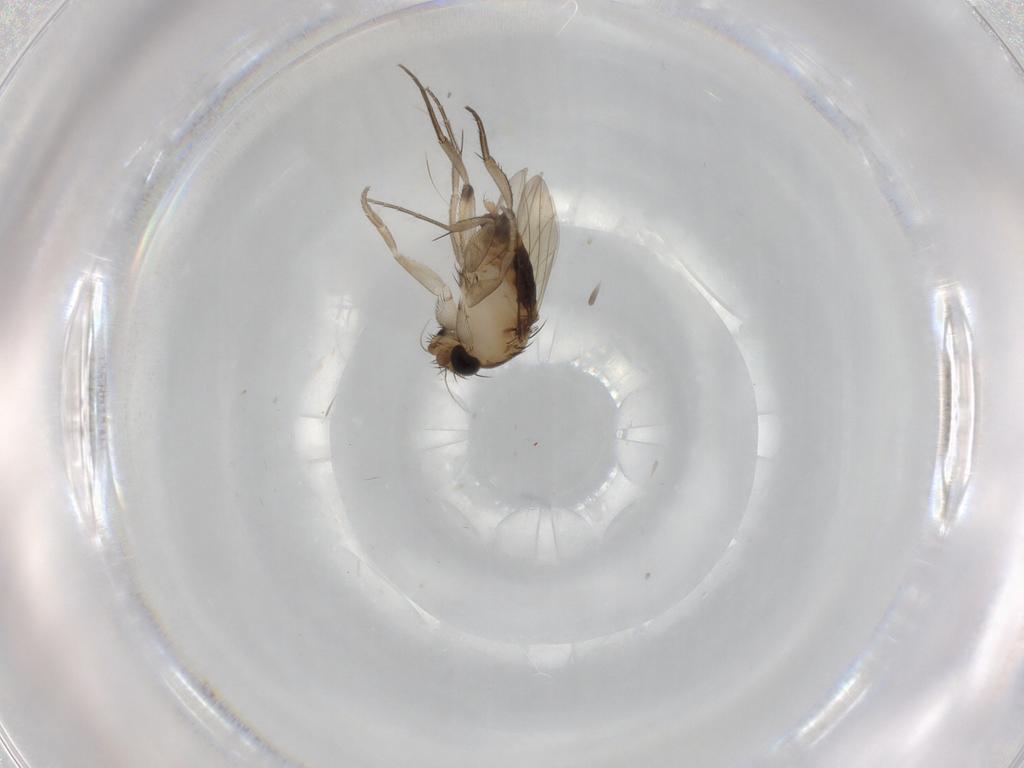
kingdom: Animalia
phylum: Arthropoda
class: Insecta
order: Diptera
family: Phoridae
